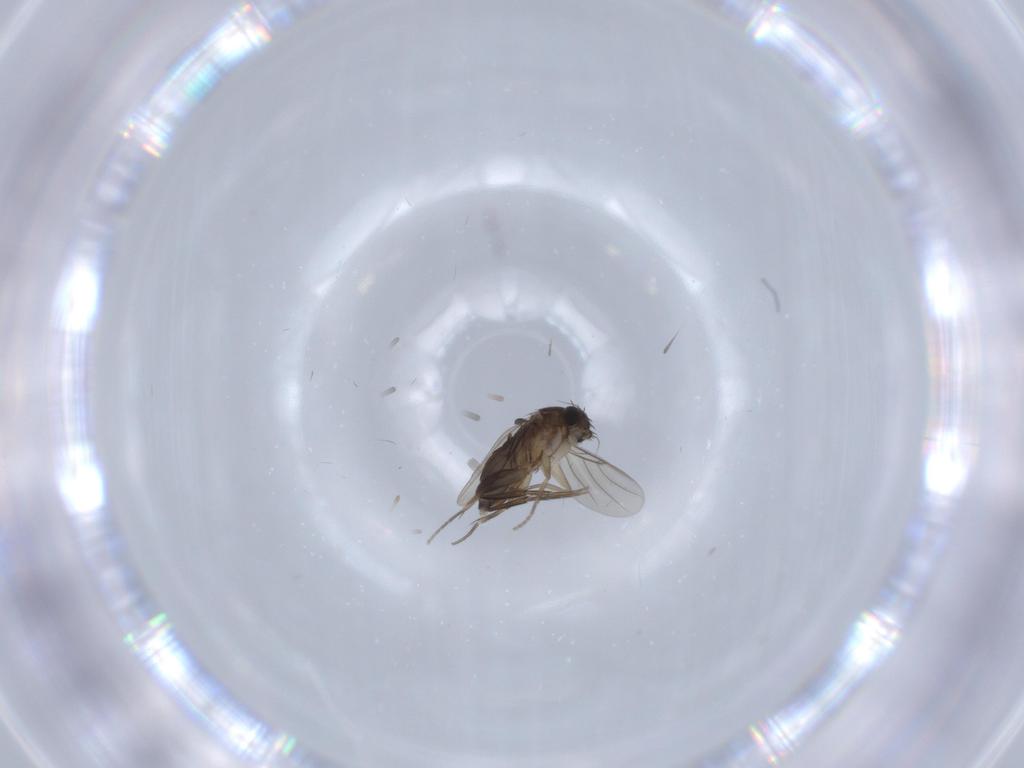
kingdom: Animalia
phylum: Arthropoda
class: Insecta
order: Diptera
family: Phoridae
